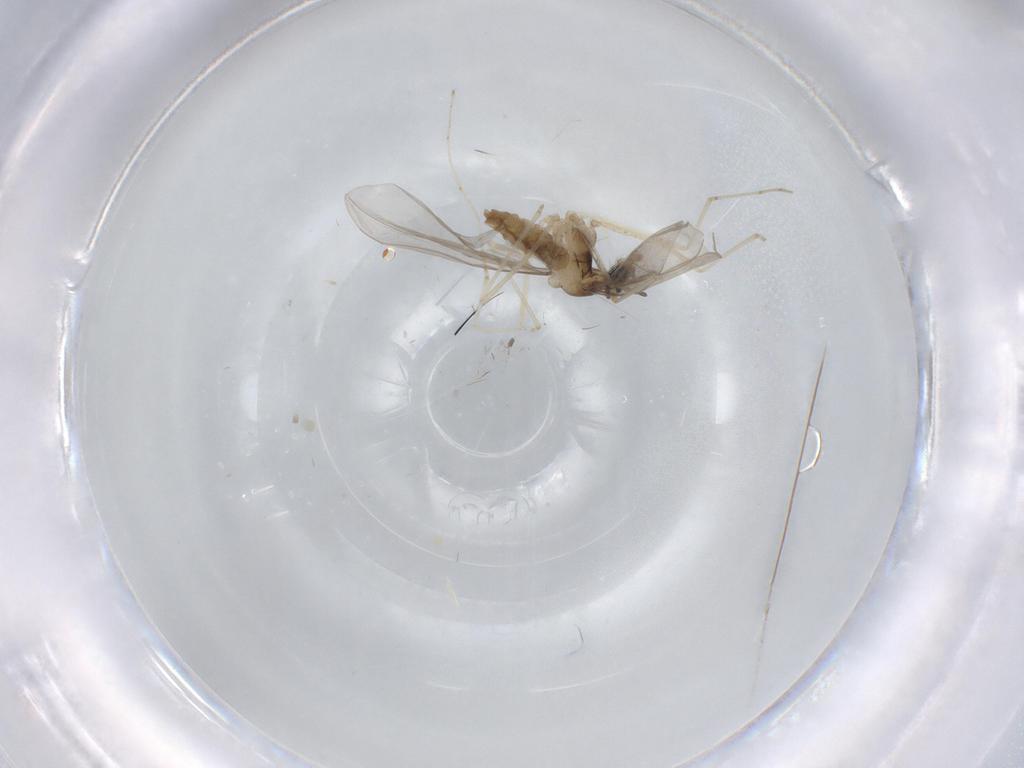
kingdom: Animalia
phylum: Arthropoda
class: Insecta
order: Diptera
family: Cecidomyiidae
